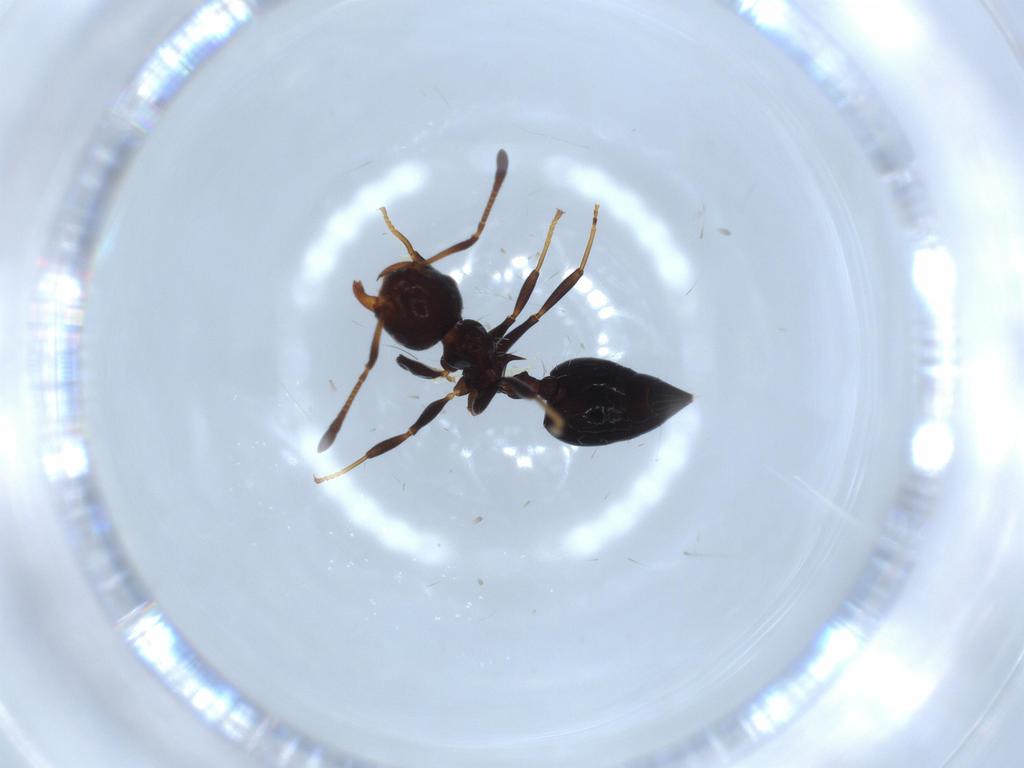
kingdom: Animalia
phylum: Arthropoda
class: Insecta
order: Hymenoptera
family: Formicidae
